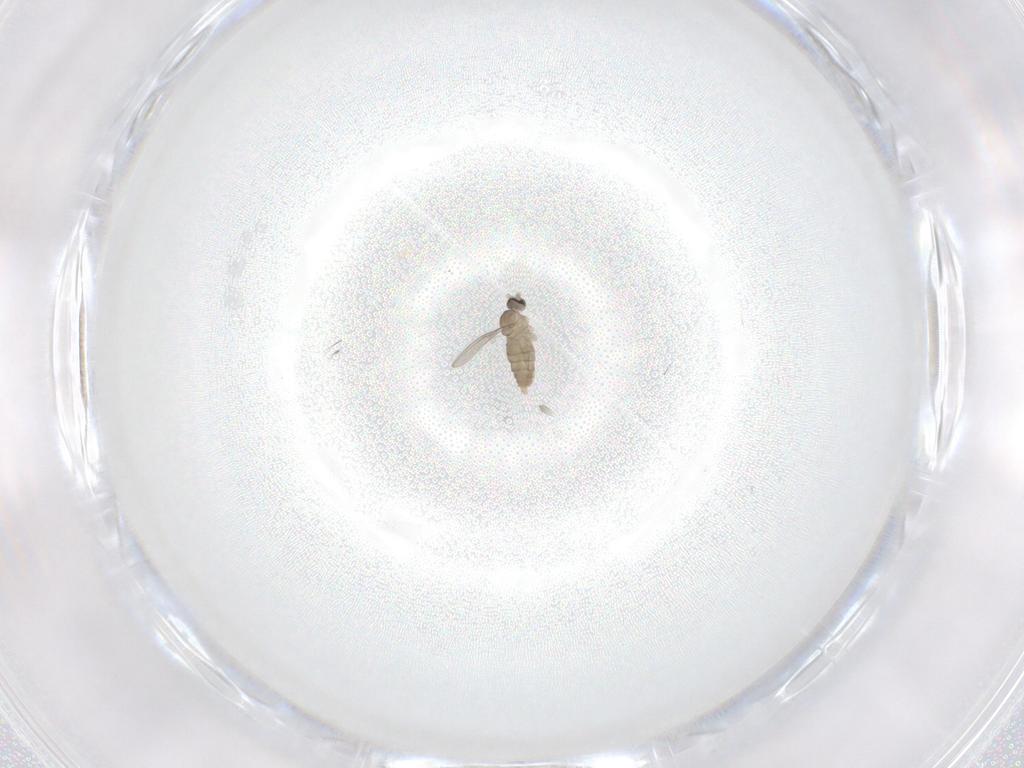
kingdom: Animalia
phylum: Arthropoda
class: Insecta
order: Diptera
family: Cecidomyiidae
